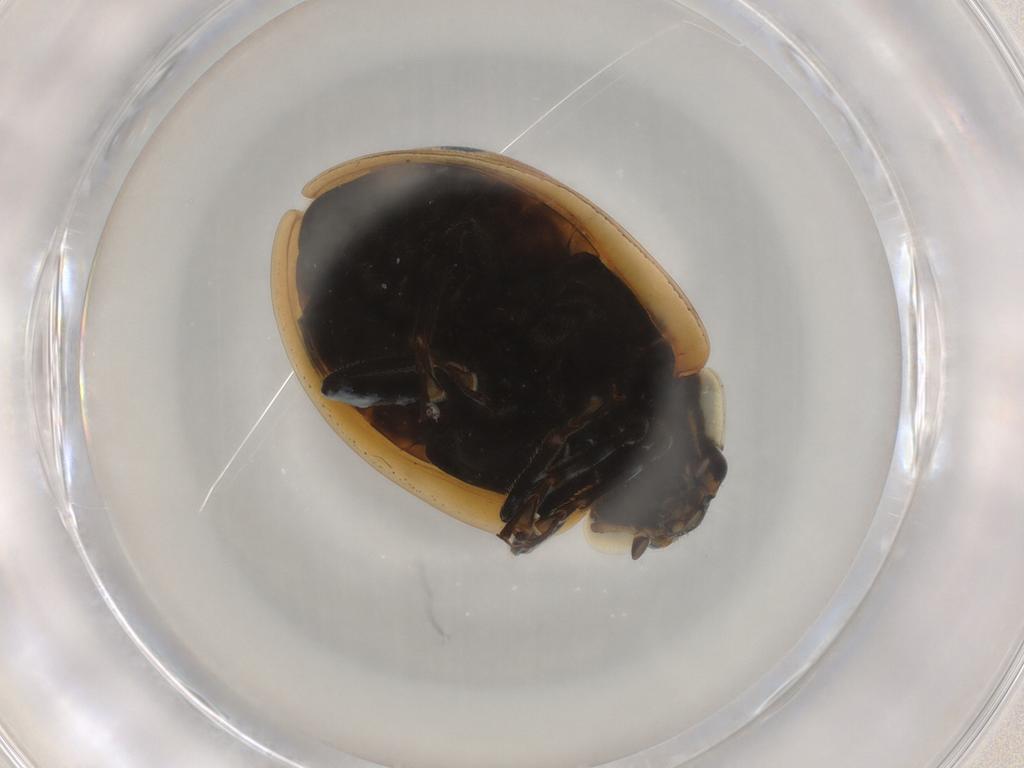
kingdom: Animalia
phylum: Arthropoda
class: Insecta
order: Coleoptera
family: Coccinellidae
